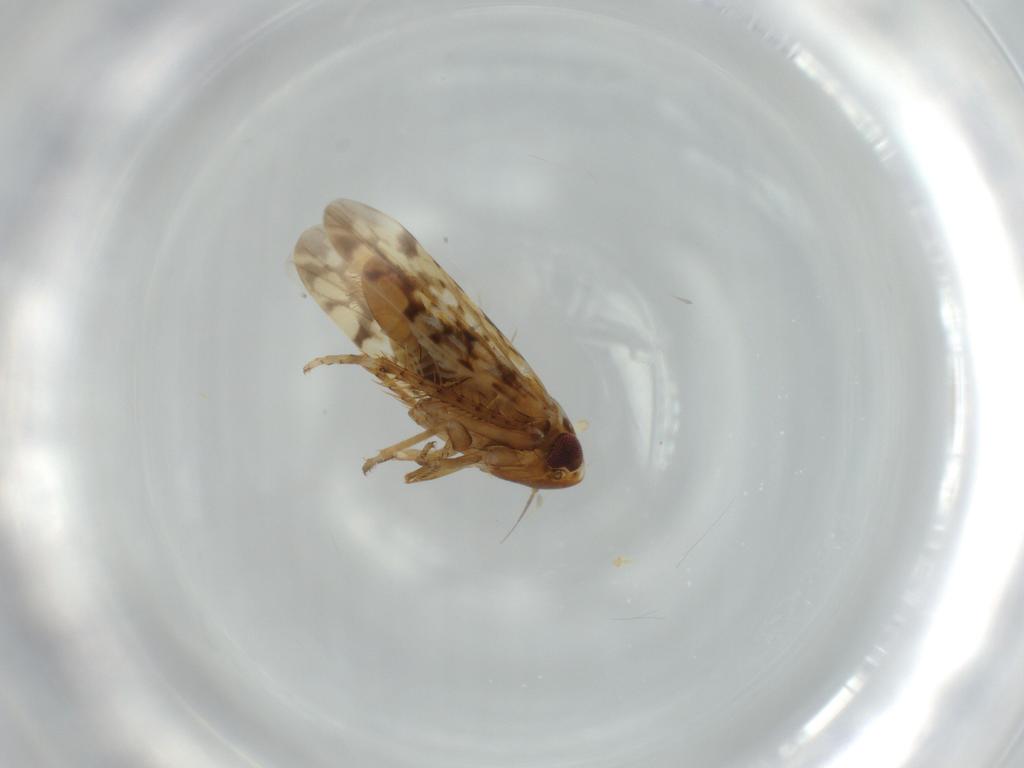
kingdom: Animalia
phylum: Arthropoda
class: Insecta
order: Hemiptera
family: Cicadellidae
